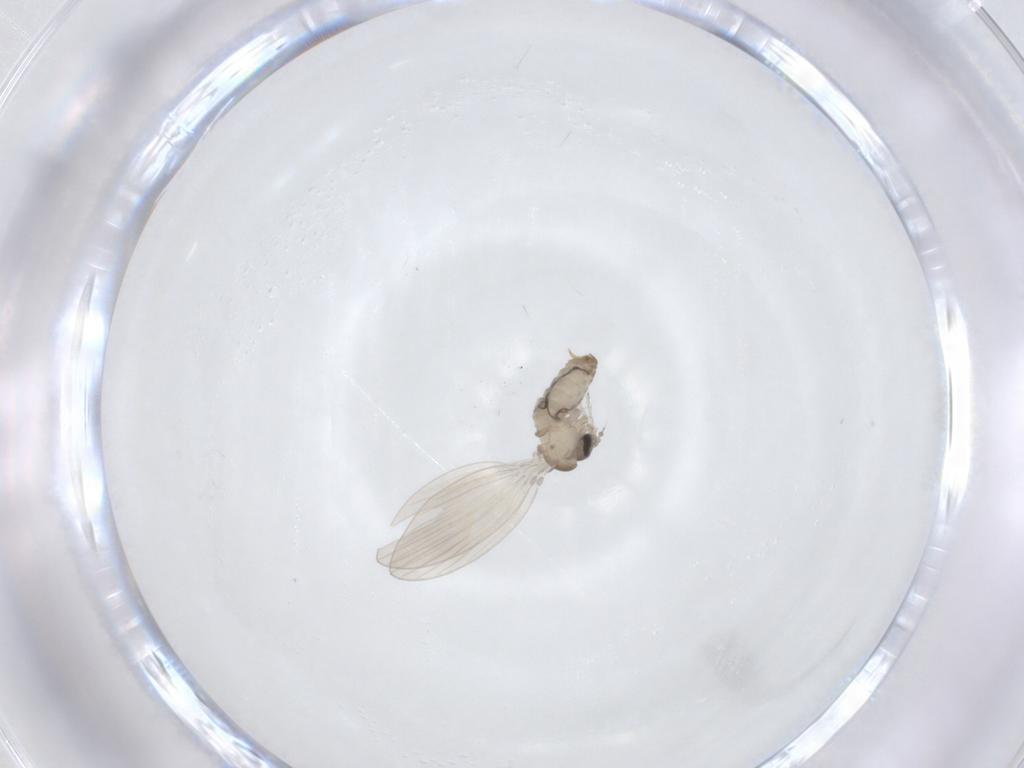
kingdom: Animalia
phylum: Arthropoda
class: Insecta
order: Diptera
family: Psychodidae
